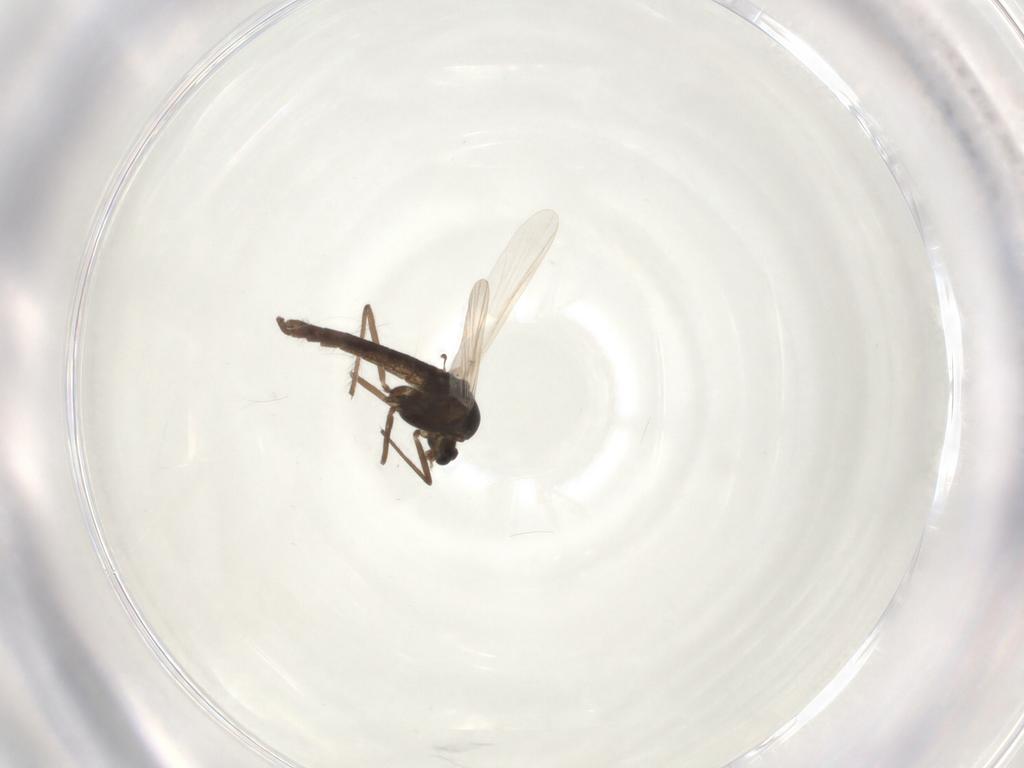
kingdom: Animalia
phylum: Arthropoda
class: Insecta
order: Diptera
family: Chironomidae
